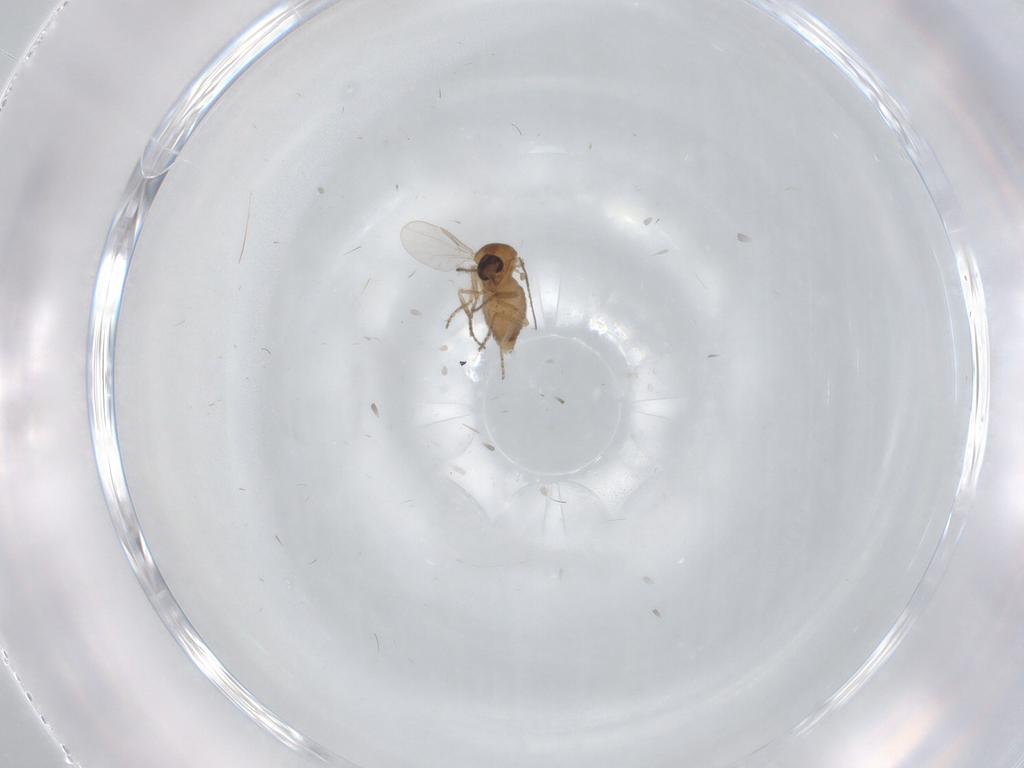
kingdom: Animalia
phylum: Arthropoda
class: Insecta
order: Diptera
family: Ceratopogonidae
